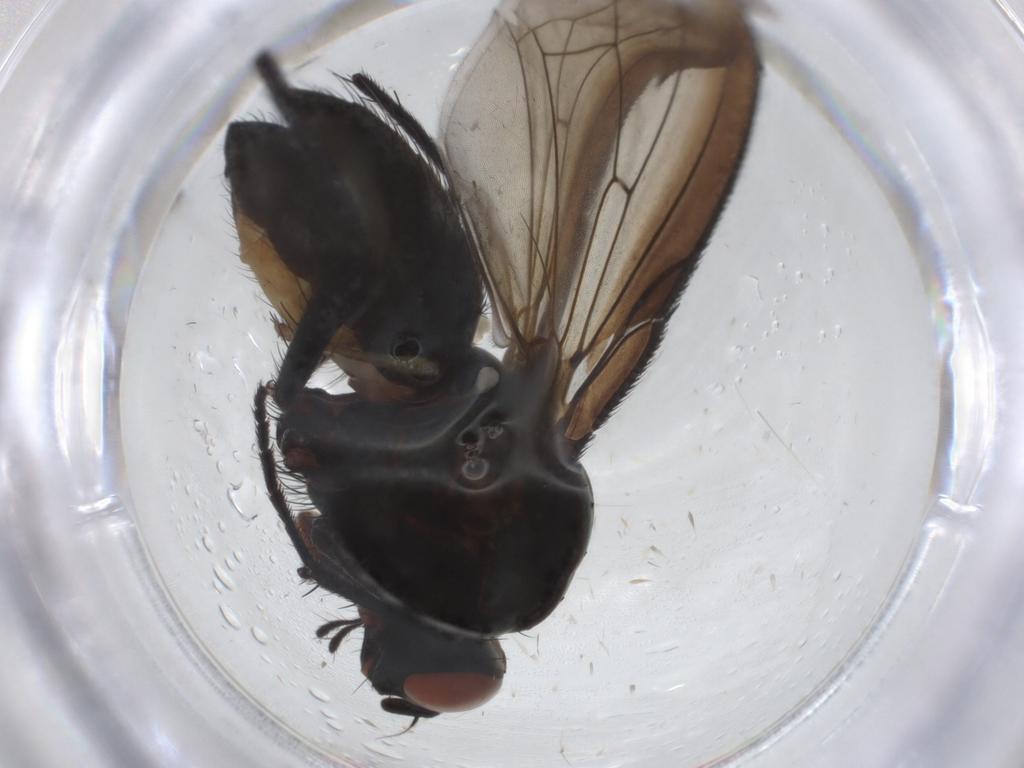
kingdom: Animalia
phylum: Arthropoda
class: Insecta
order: Diptera
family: Anthomyiidae
